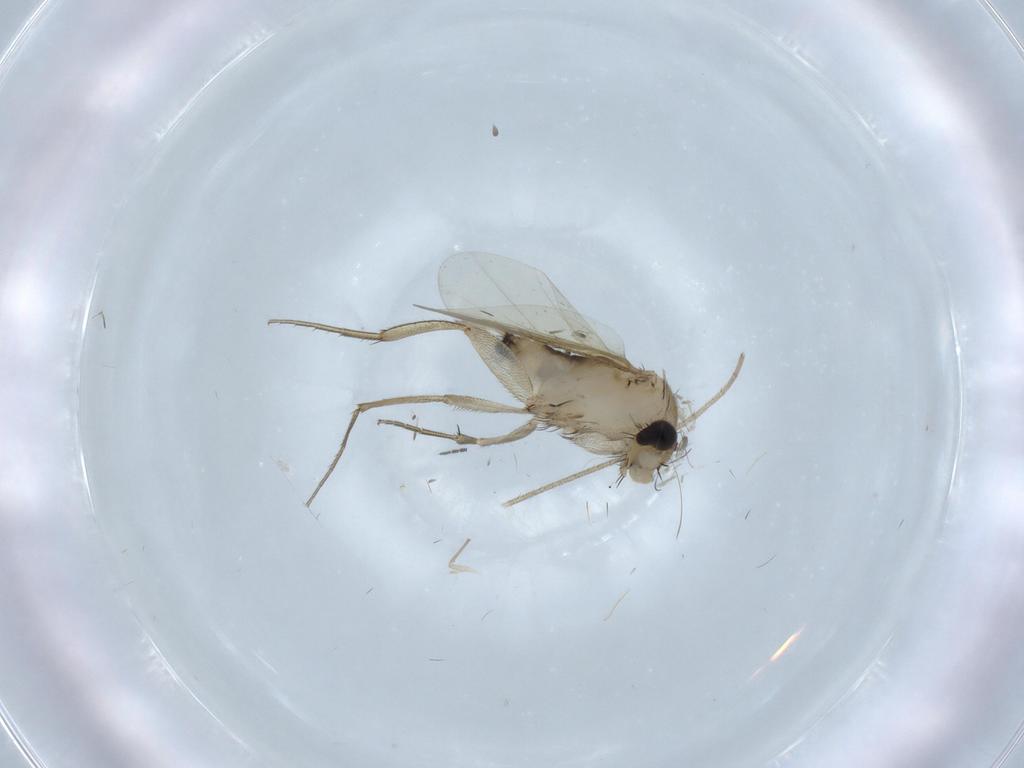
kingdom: Animalia
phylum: Arthropoda
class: Insecta
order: Diptera
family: Phoridae
